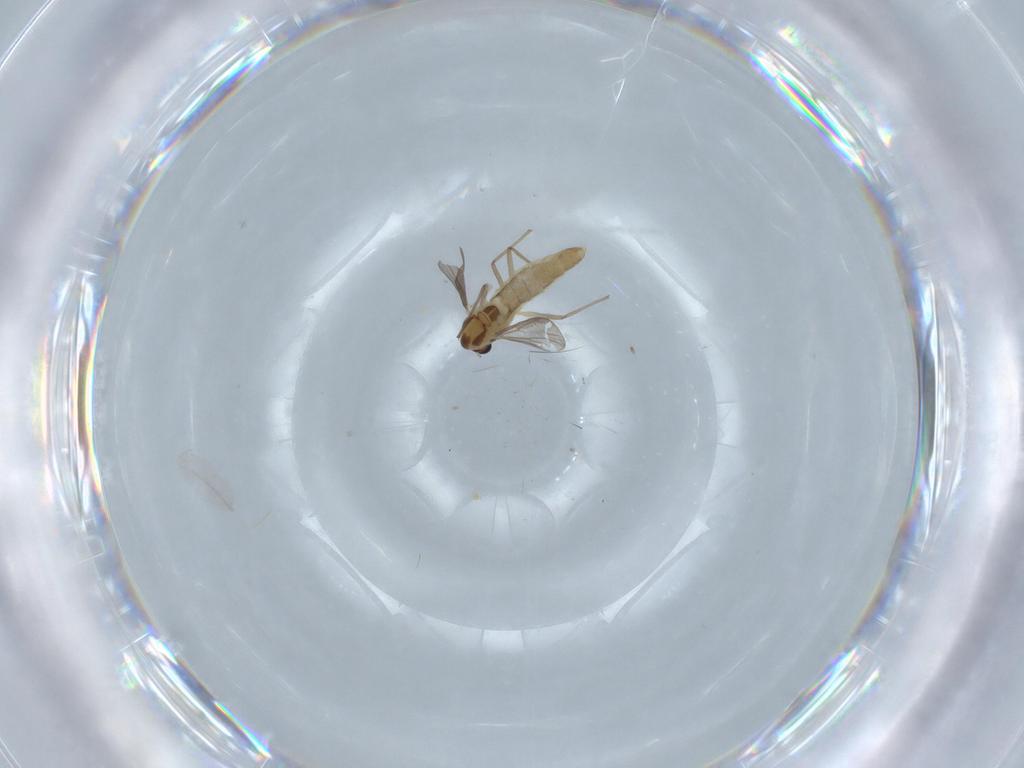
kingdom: Animalia
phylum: Arthropoda
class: Insecta
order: Diptera
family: Chironomidae
